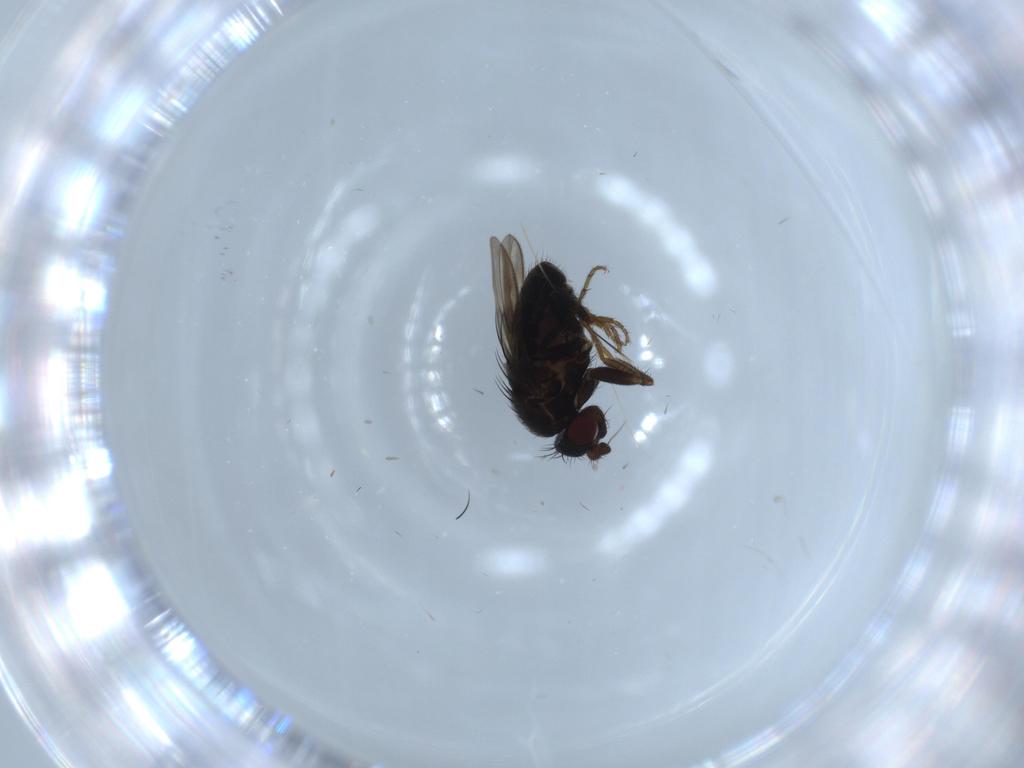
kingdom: Animalia
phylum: Arthropoda
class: Insecta
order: Diptera
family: Sphaeroceridae
